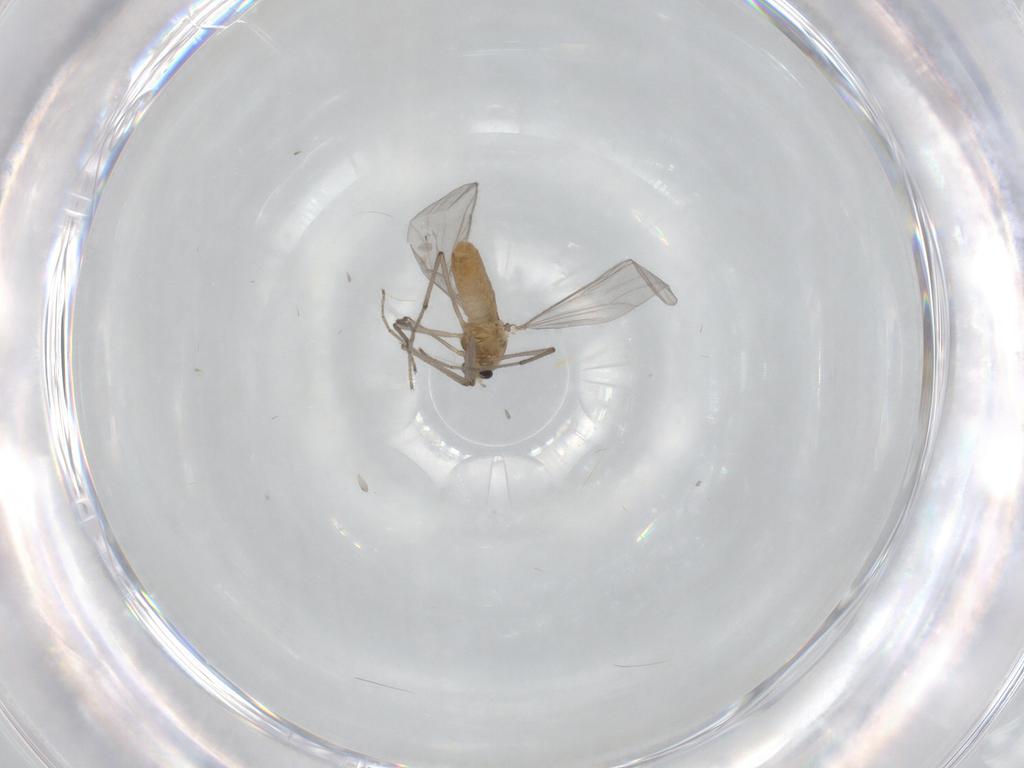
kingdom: Animalia
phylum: Arthropoda
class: Insecta
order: Diptera
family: Chironomidae
